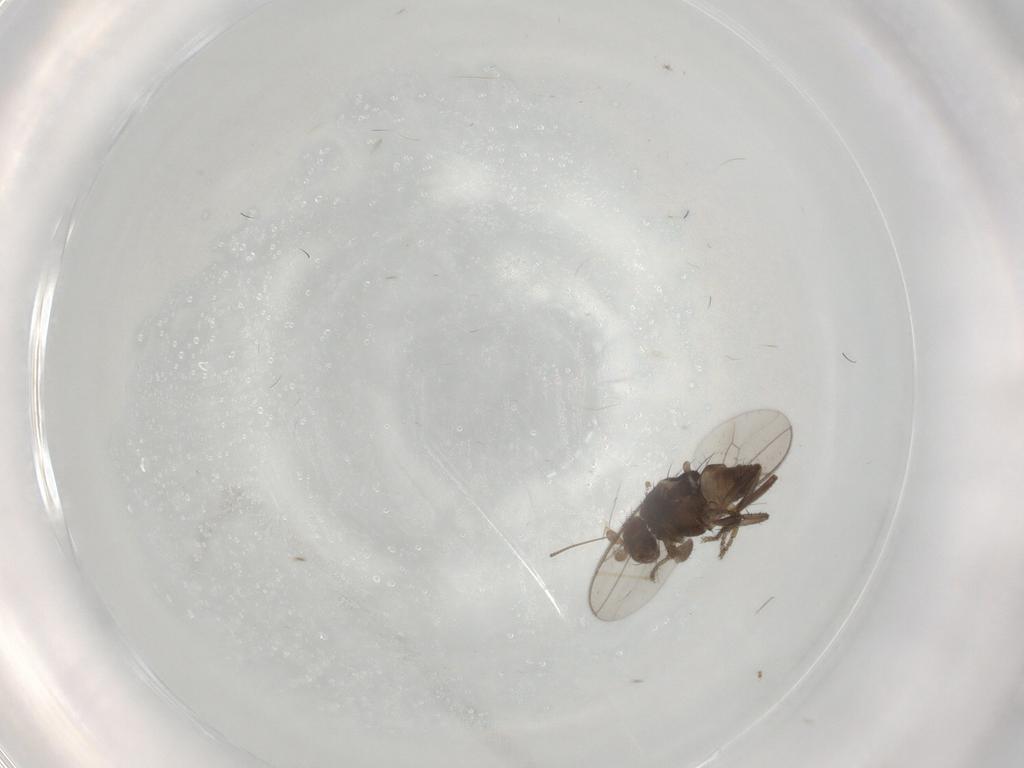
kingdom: Animalia
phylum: Arthropoda
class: Insecta
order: Diptera
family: Sphaeroceridae
